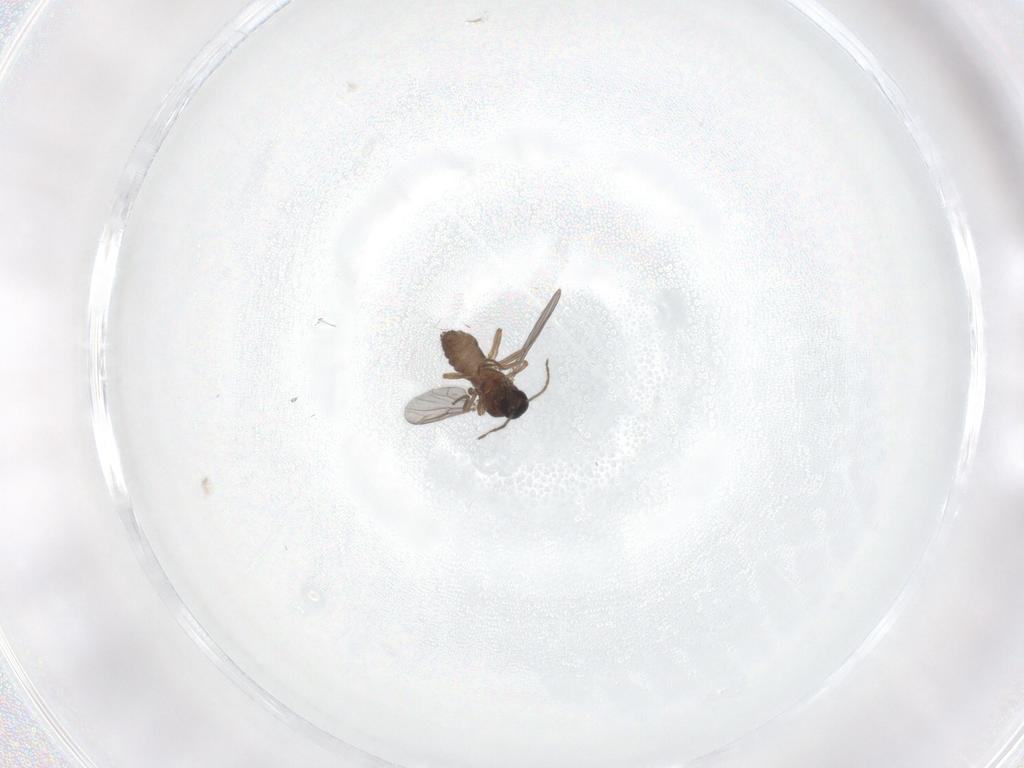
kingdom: Animalia
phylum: Arthropoda
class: Insecta
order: Diptera
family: Ceratopogonidae
